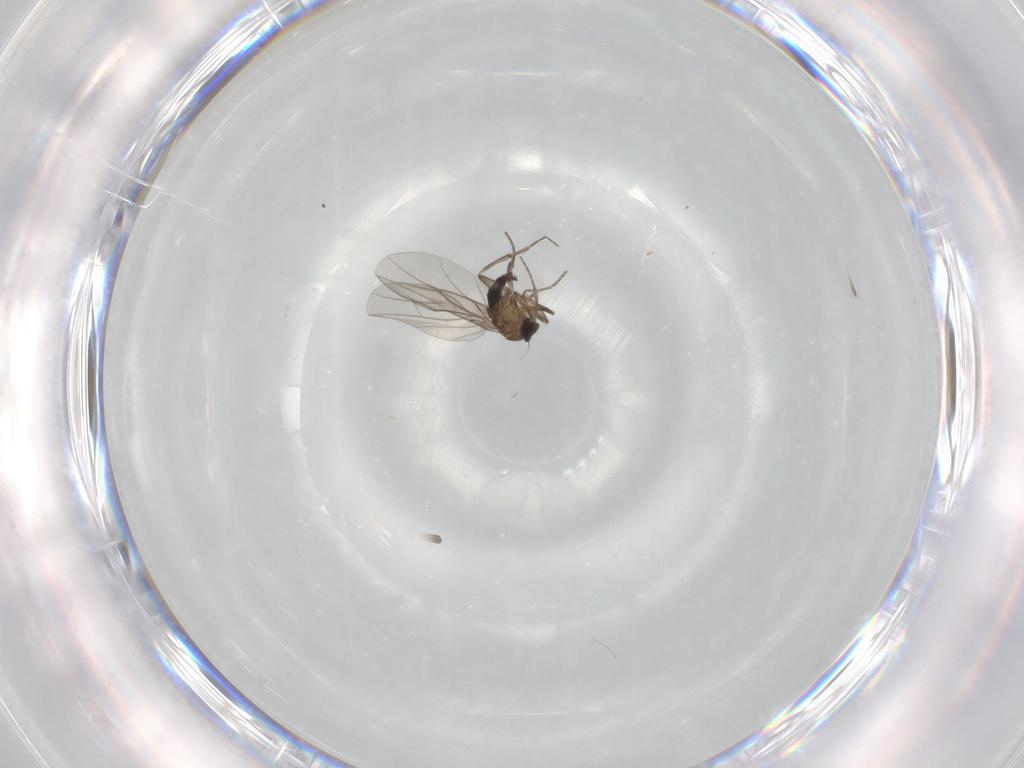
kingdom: Animalia
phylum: Arthropoda
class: Insecta
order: Diptera
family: Phoridae
